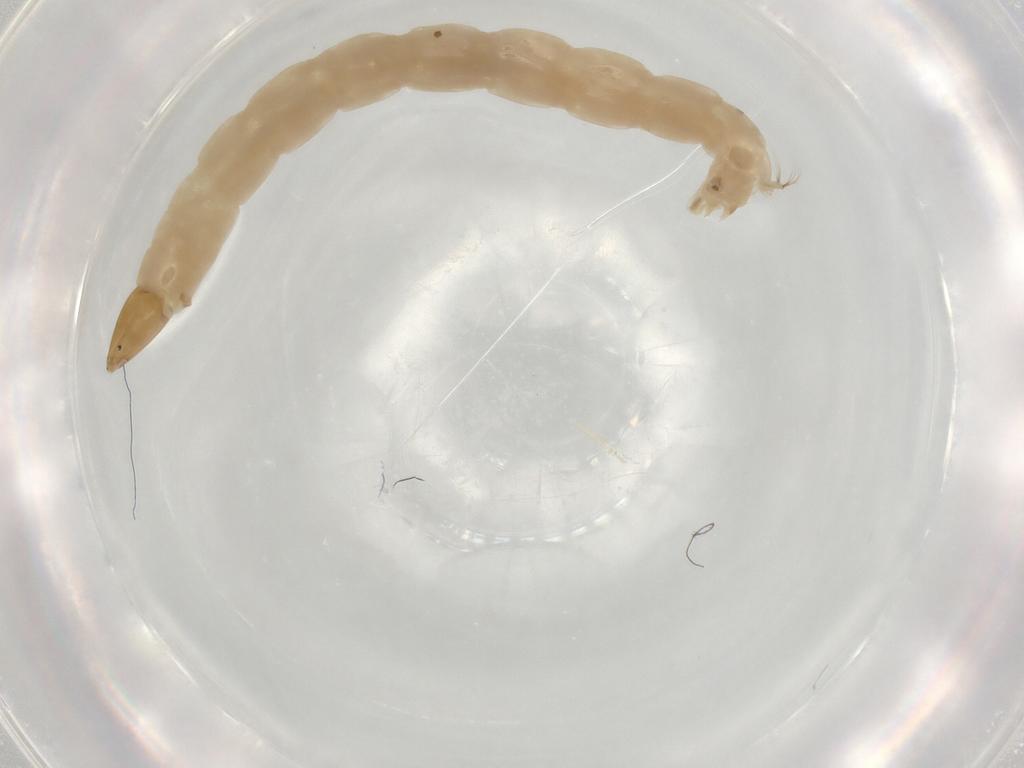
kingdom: Animalia
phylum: Arthropoda
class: Insecta
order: Diptera
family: Chironomidae
